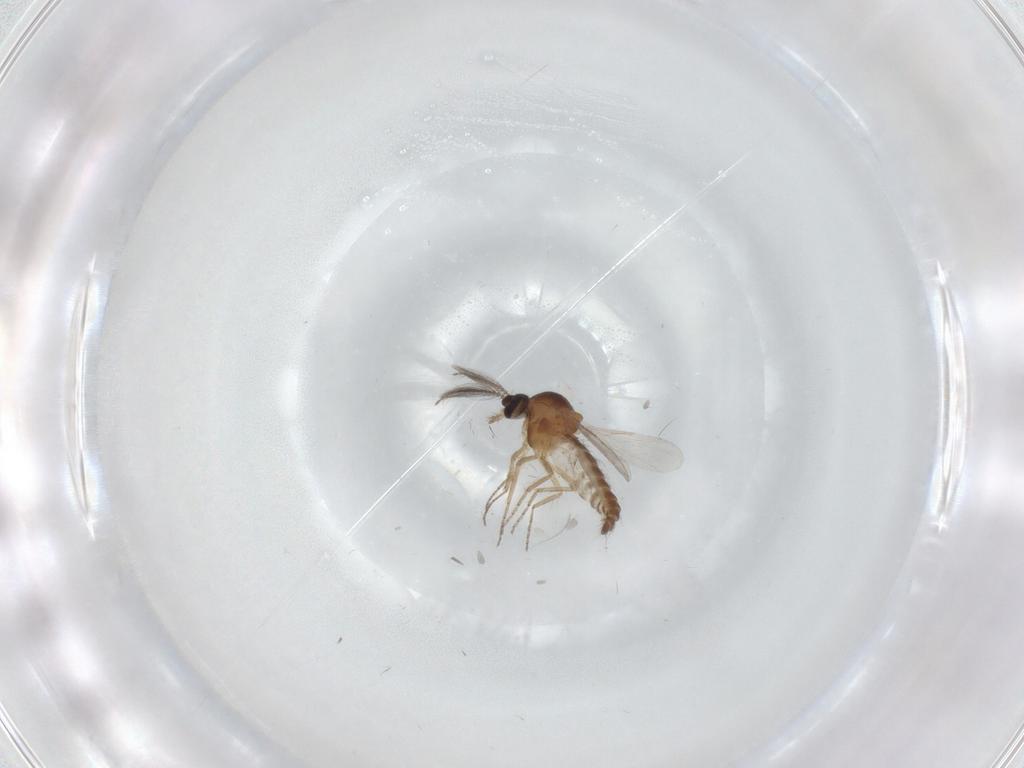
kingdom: Animalia
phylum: Arthropoda
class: Insecta
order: Diptera
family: Ceratopogonidae
